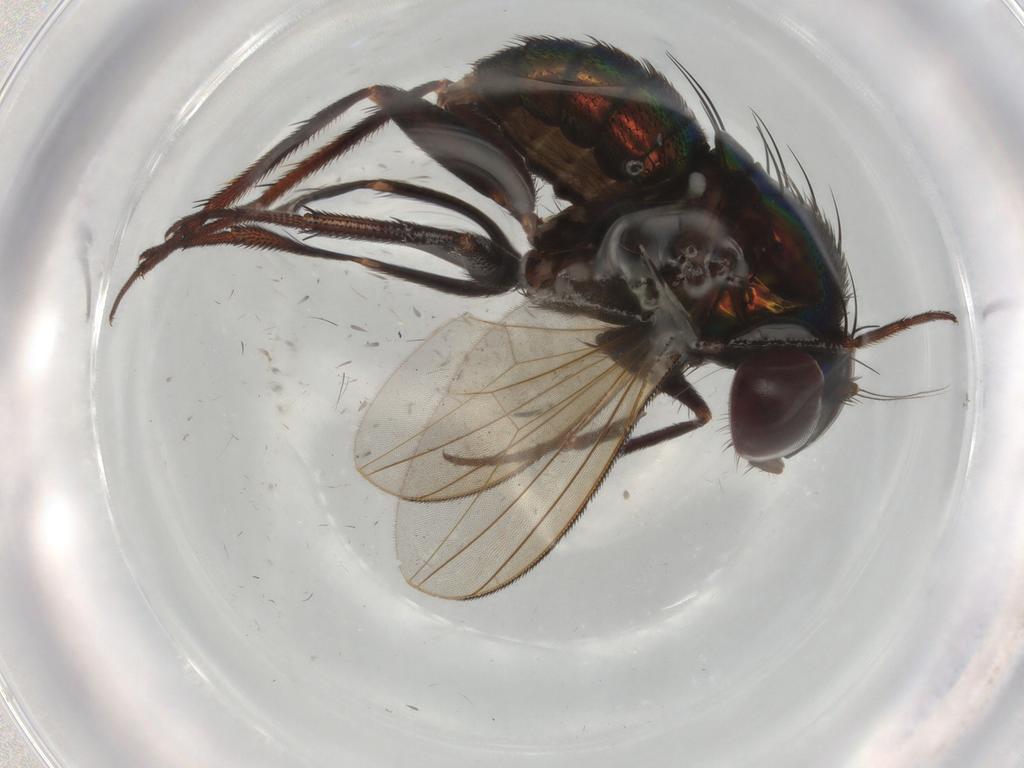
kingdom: Animalia
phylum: Arthropoda
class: Insecta
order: Diptera
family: Dolichopodidae
